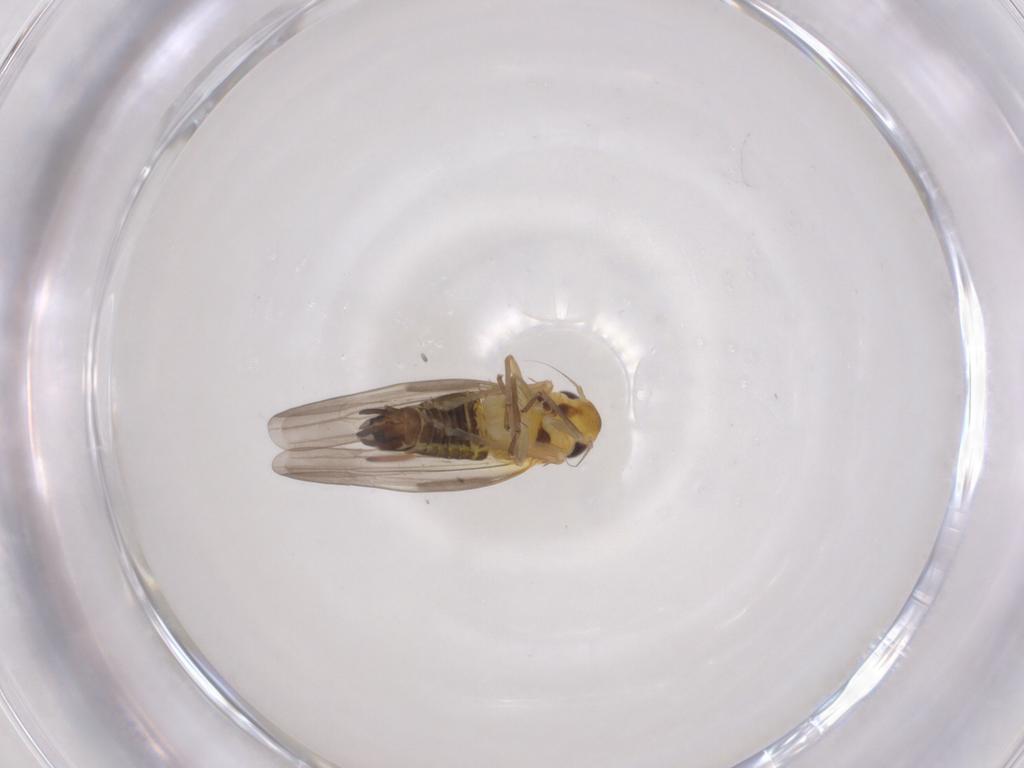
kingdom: Animalia
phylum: Arthropoda
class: Insecta
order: Hemiptera
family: Cicadellidae
